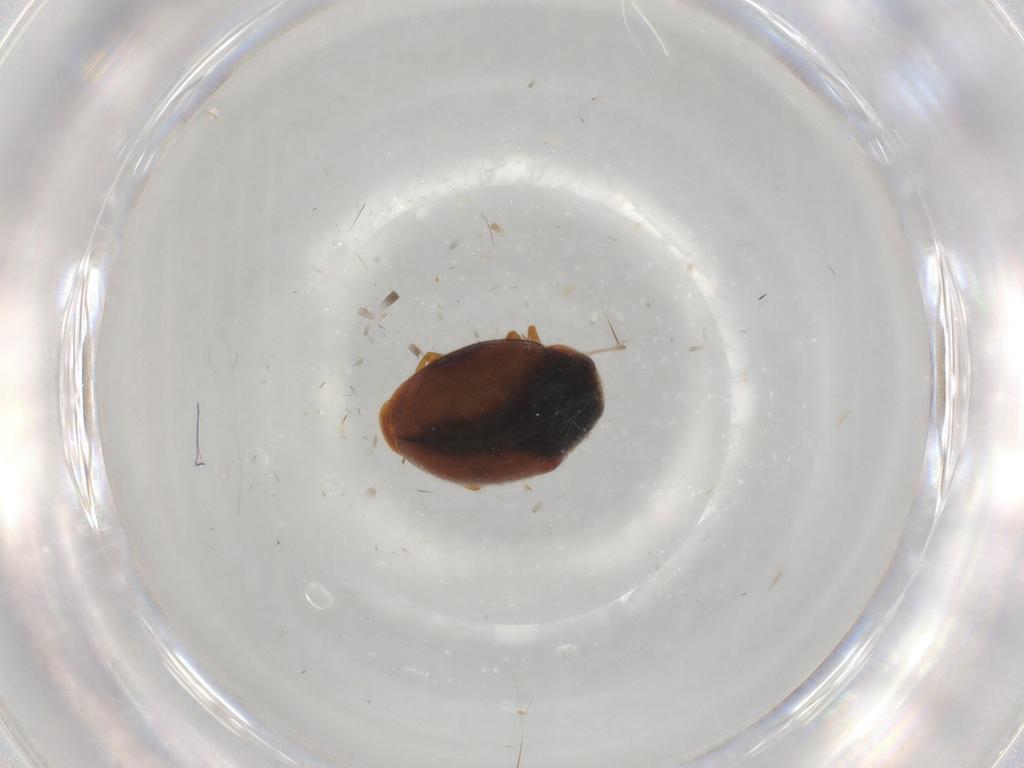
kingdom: Animalia
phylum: Arthropoda
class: Insecta
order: Coleoptera
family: Coccinellidae
